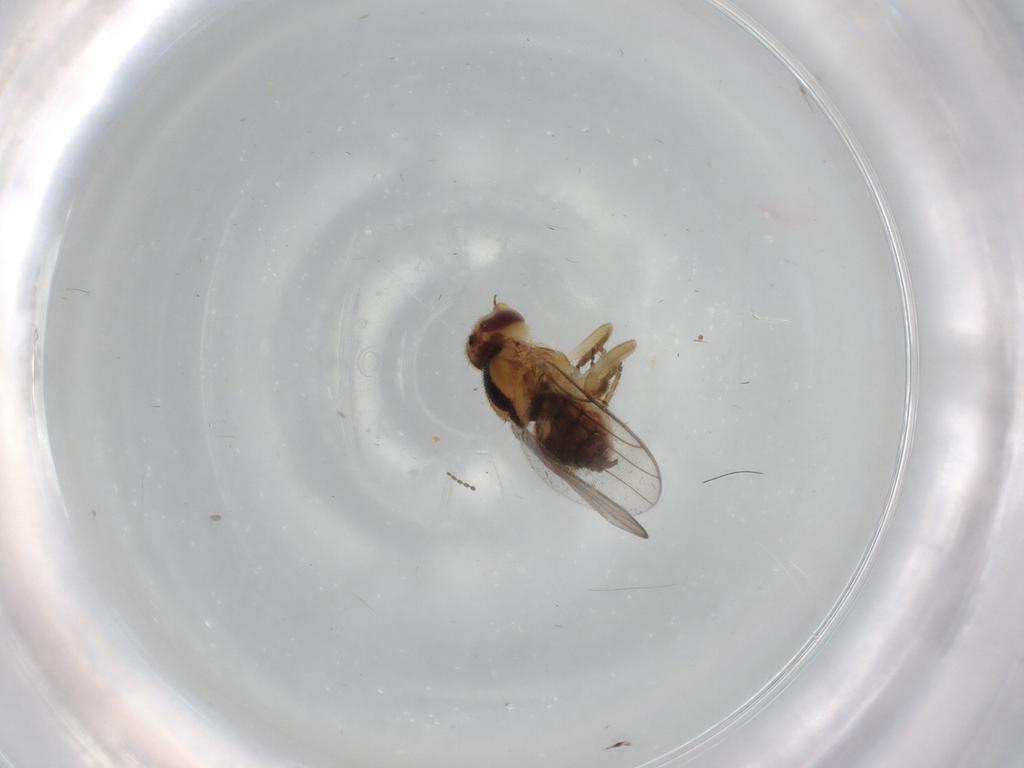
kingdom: Animalia
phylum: Arthropoda
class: Insecta
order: Diptera
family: Chloropidae
